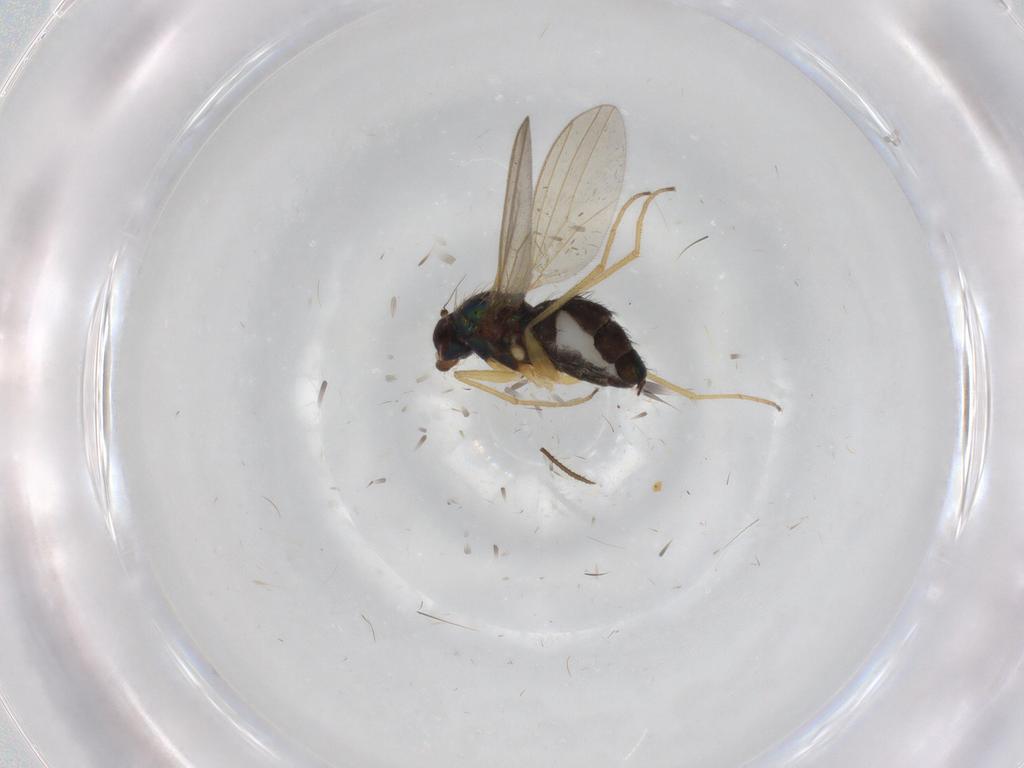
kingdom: Animalia
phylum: Arthropoda
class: Insecta
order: Diptera
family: Chironomidae
